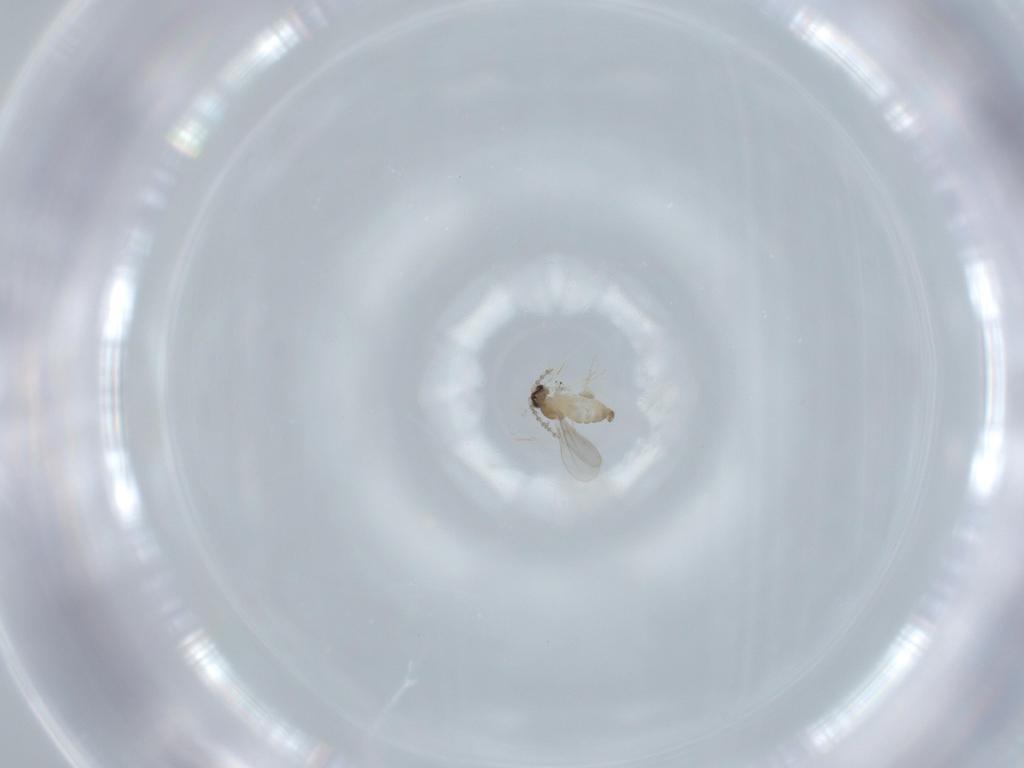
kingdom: Animalia
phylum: Arthropoda
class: Insecta
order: Diptera
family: Cecidomyiidae
